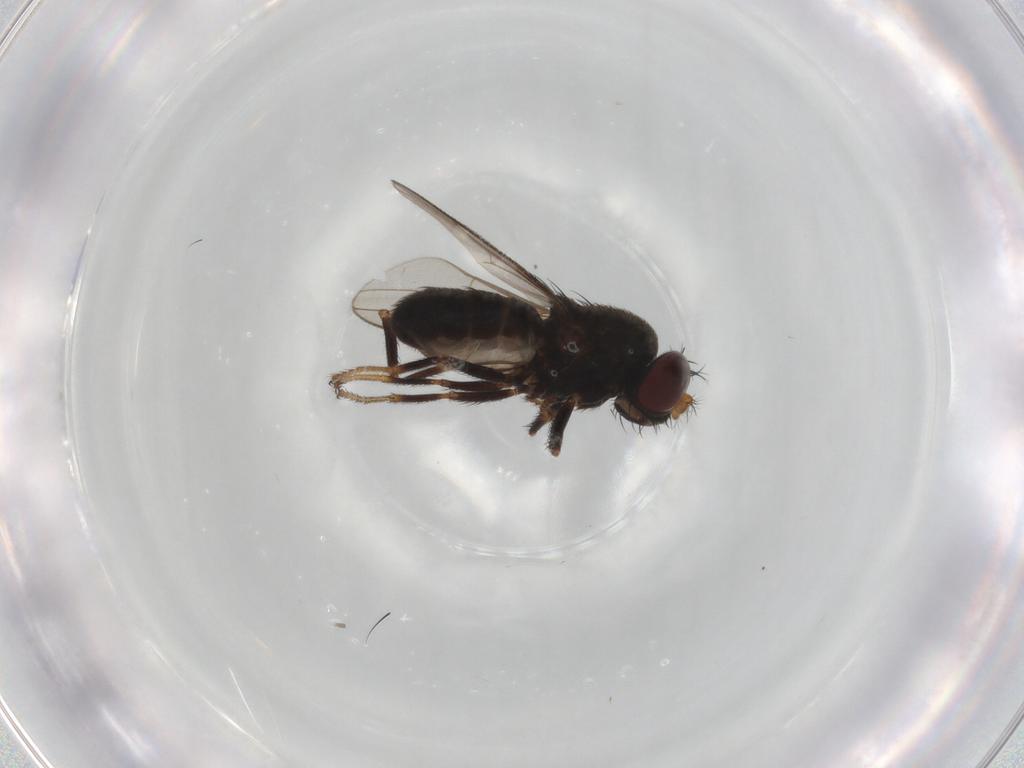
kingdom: Animalia
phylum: Arthropoda
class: Insecta
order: Diptera
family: Ephydridae
